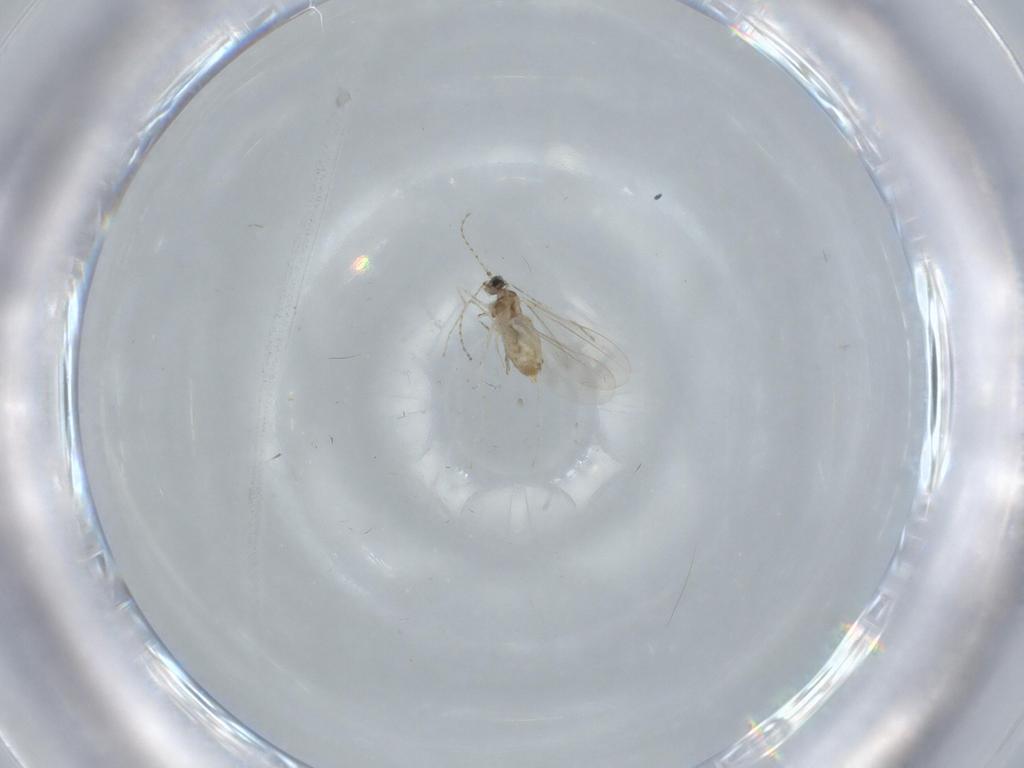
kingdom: Animalia
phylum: Arthropoda
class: Insecta
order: Diptera
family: Cecidomyiidae
